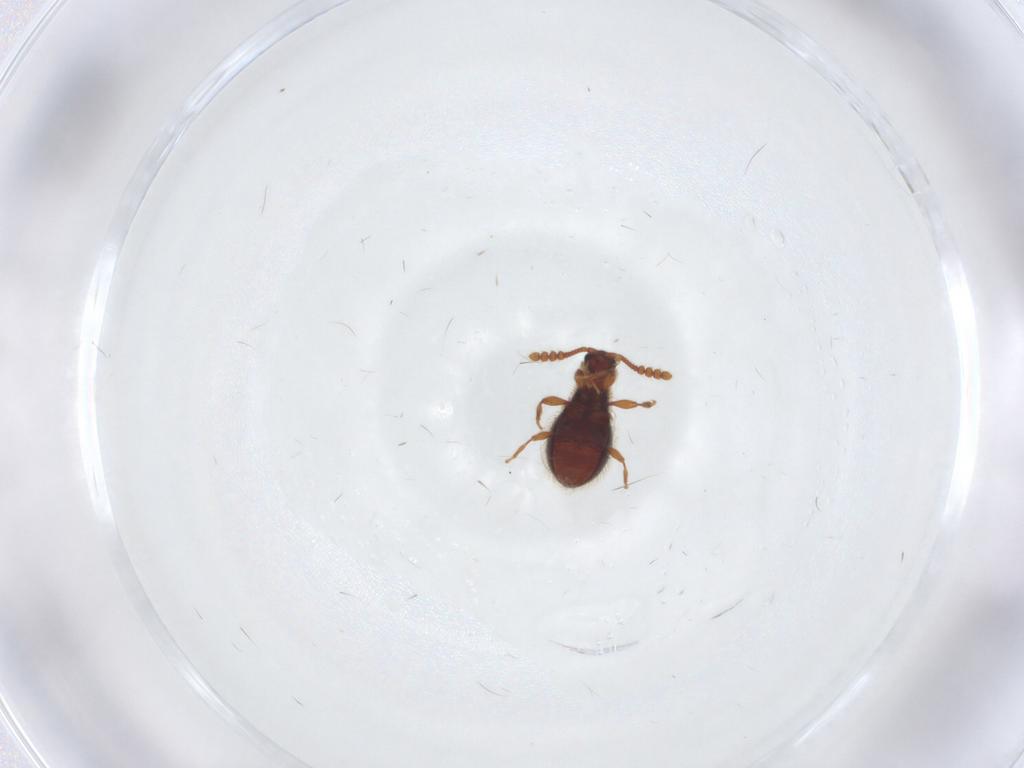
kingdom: Animalia
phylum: Arthropoda
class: Insecta
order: Coleoptera
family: Staphylinidae
